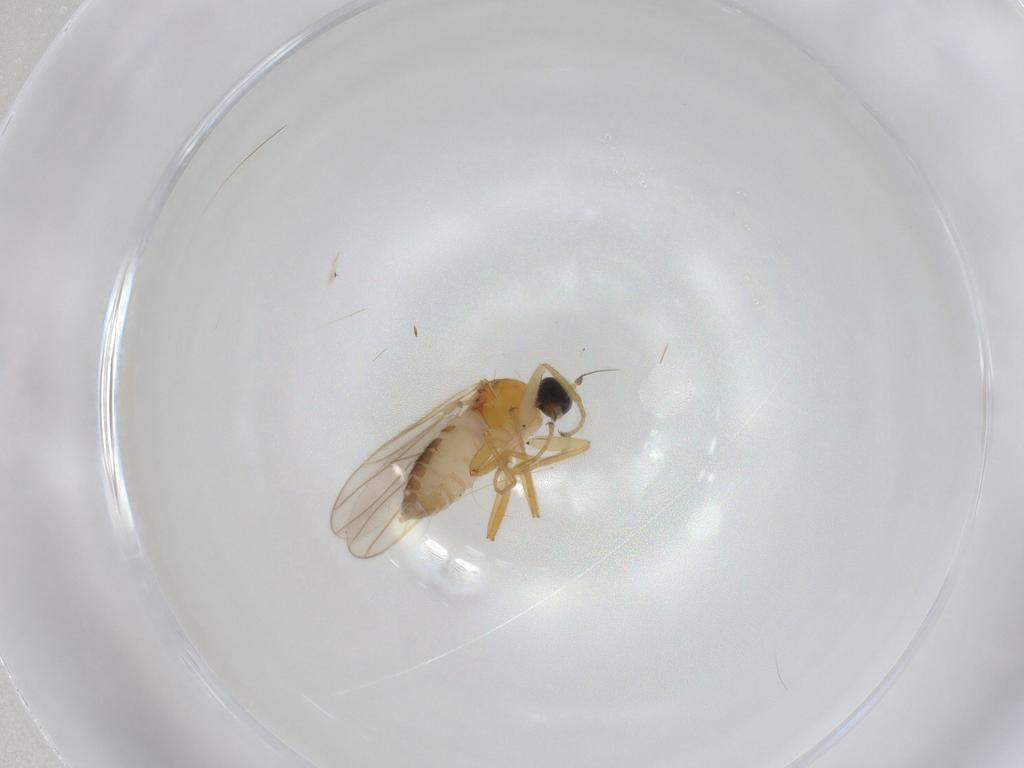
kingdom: Animalia
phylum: Arthropoda
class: Insecta
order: Diptera
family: Hybotidae
